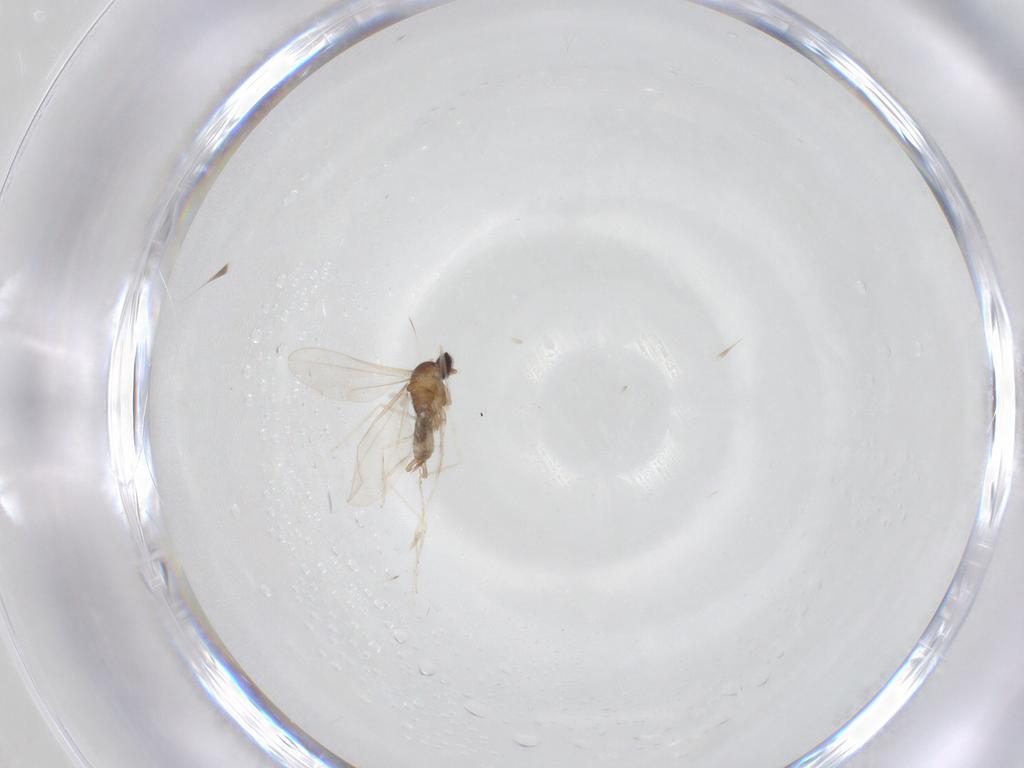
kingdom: Animalia
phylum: Arthropoda
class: Insecta
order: Diptera
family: Cecidomyiidae
